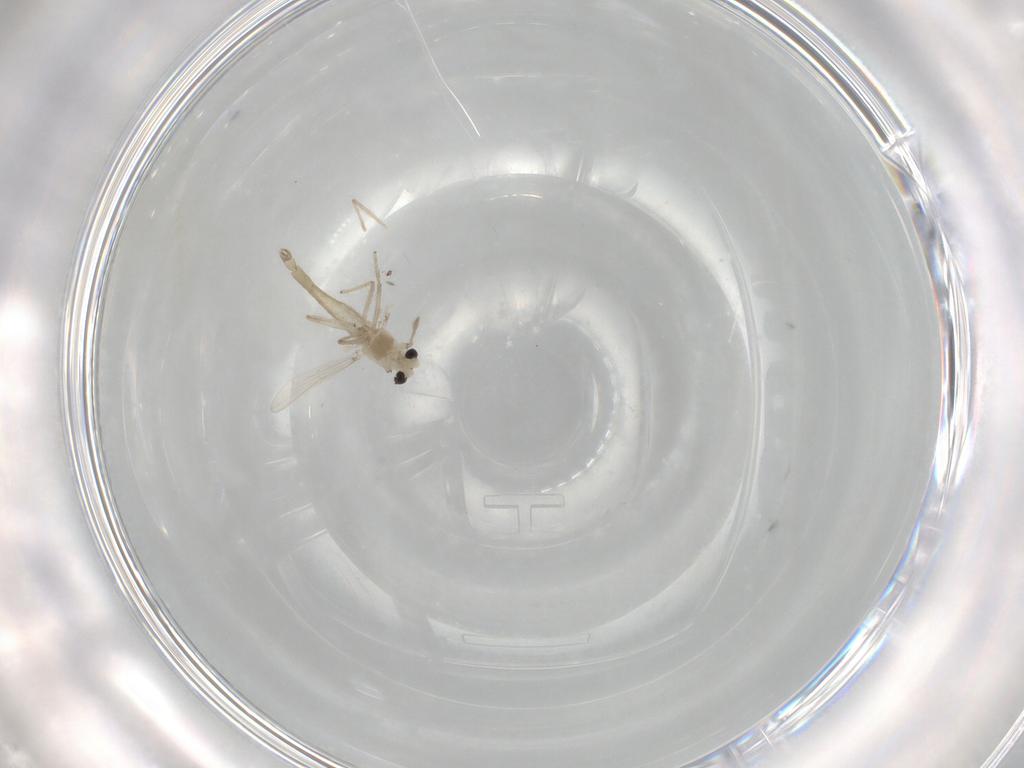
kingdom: Animalia
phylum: Arthropoda
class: Insecta
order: Diptera
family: Chironomidae
